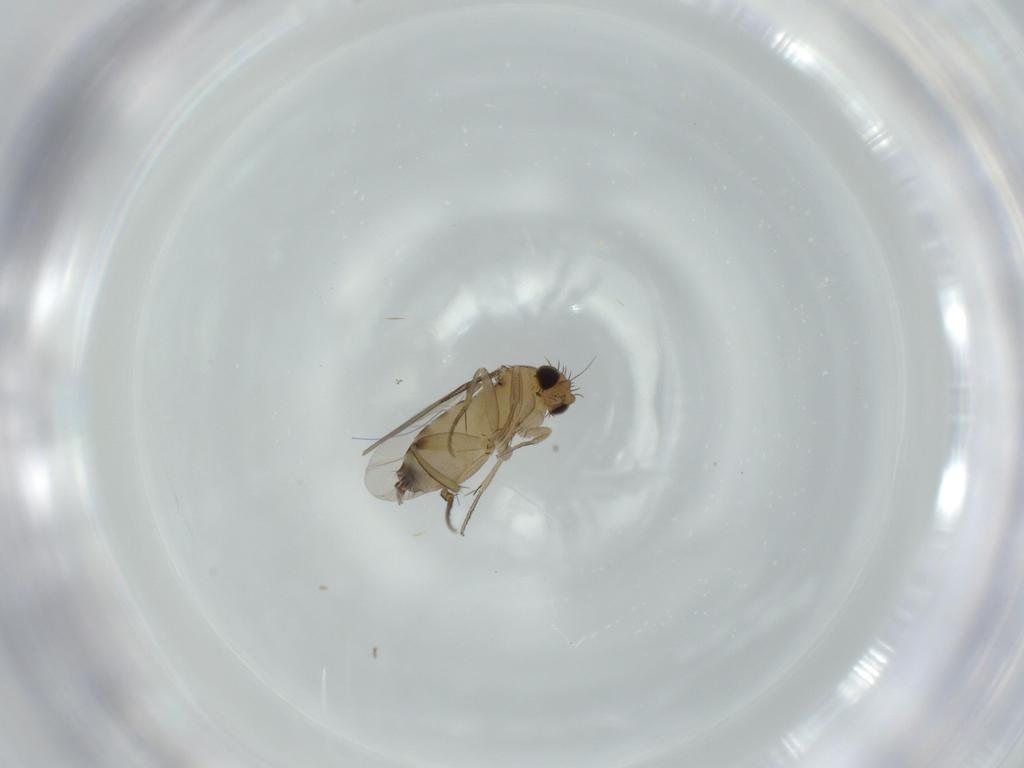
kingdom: Animalia
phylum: Arthropoda
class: Insecta
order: Diptera
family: Phoridae
